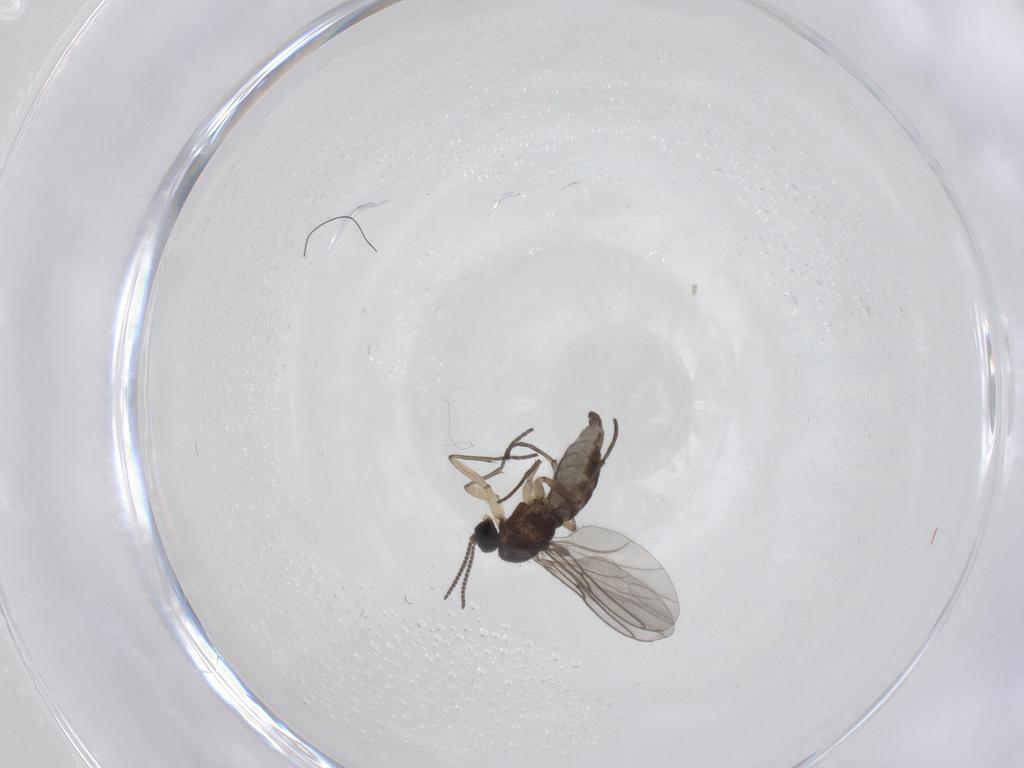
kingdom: Animalia
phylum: Arthropoda
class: Insecta
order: Diptera
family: Sciaridae
